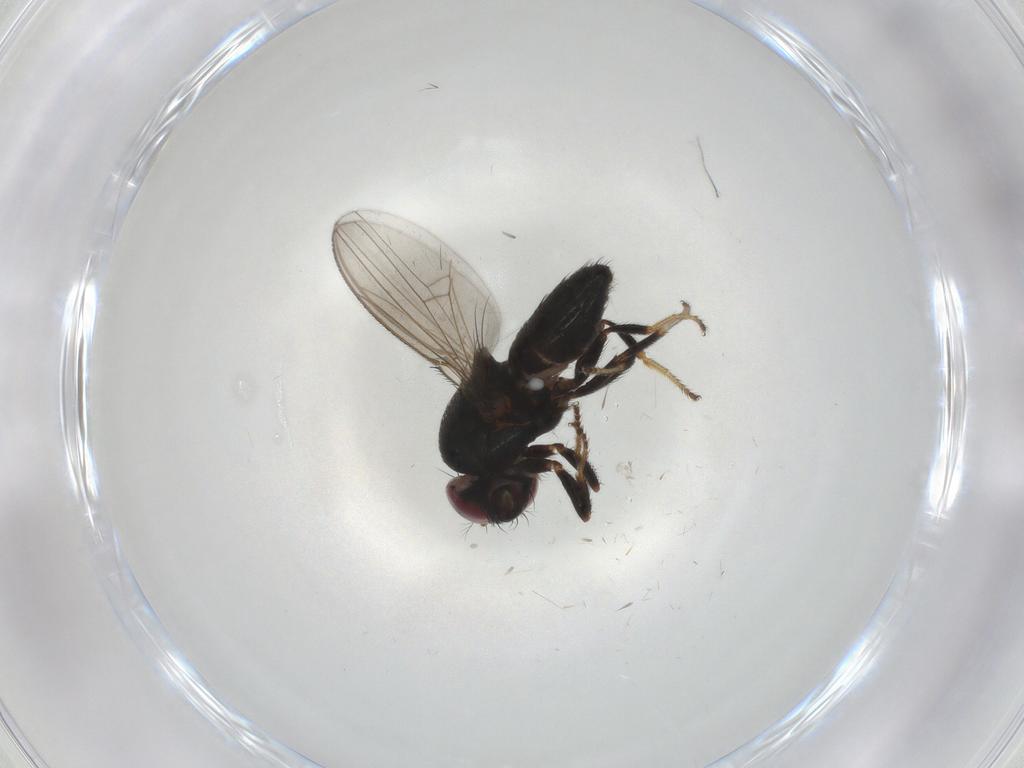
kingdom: Animalia
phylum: Arthropoda
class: Insecta
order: Diptera
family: Ephydridae
